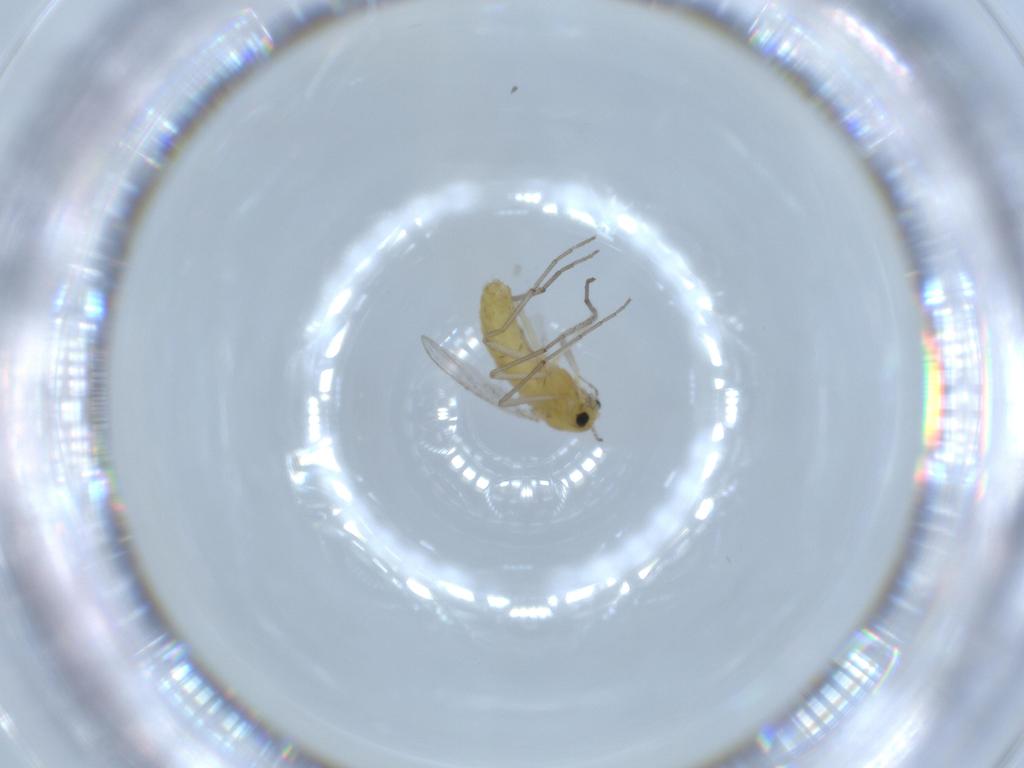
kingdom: Animalia
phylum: Arthropoda
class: Insecta
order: Diptera
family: Chironomidae
